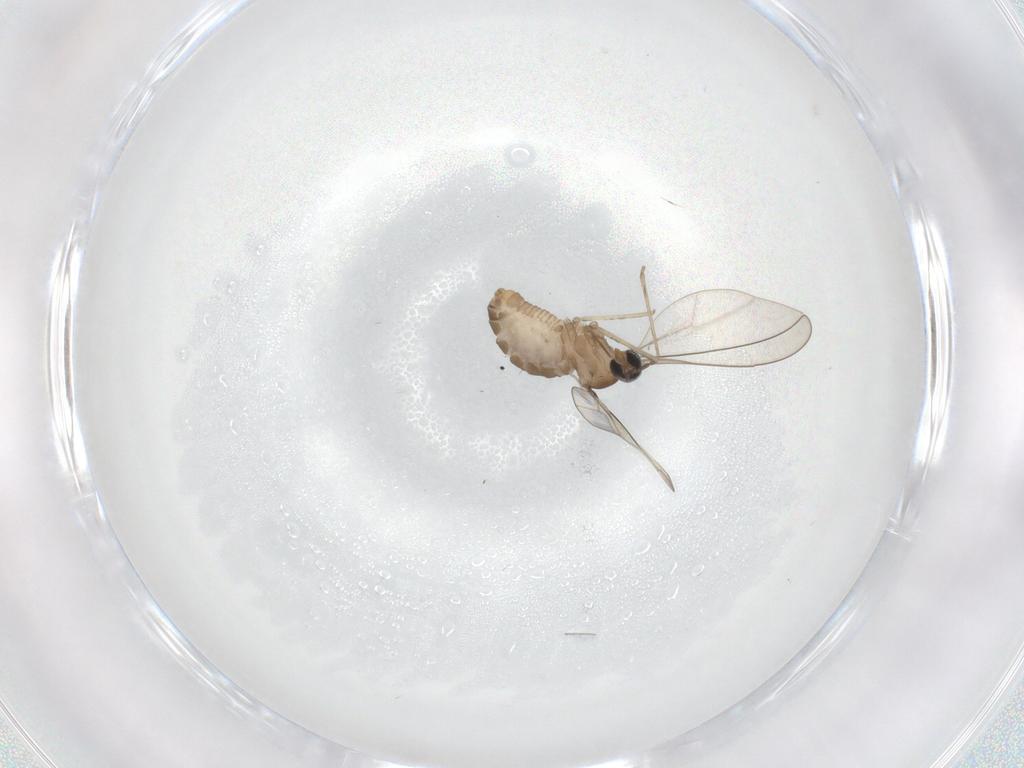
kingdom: Animalia
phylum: Arthropoda
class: Insecta
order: Diptera
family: Cecidomyiidae
